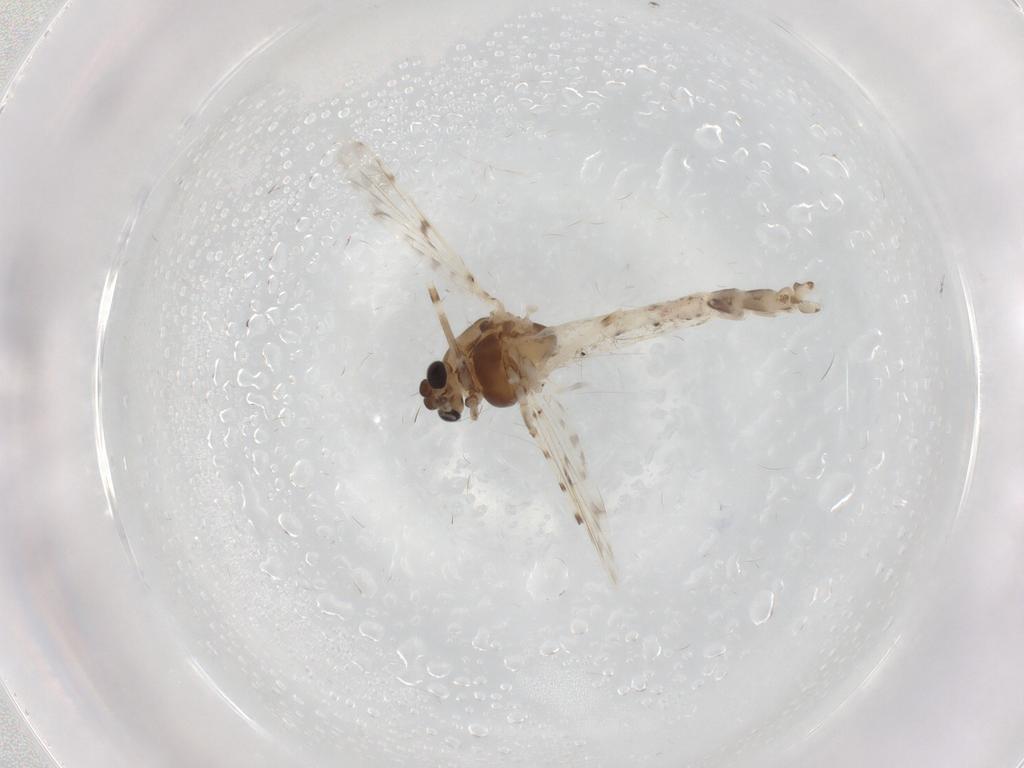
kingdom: Animalia
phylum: Arthropoda
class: Insecta
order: Diptera
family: Chironomidae
